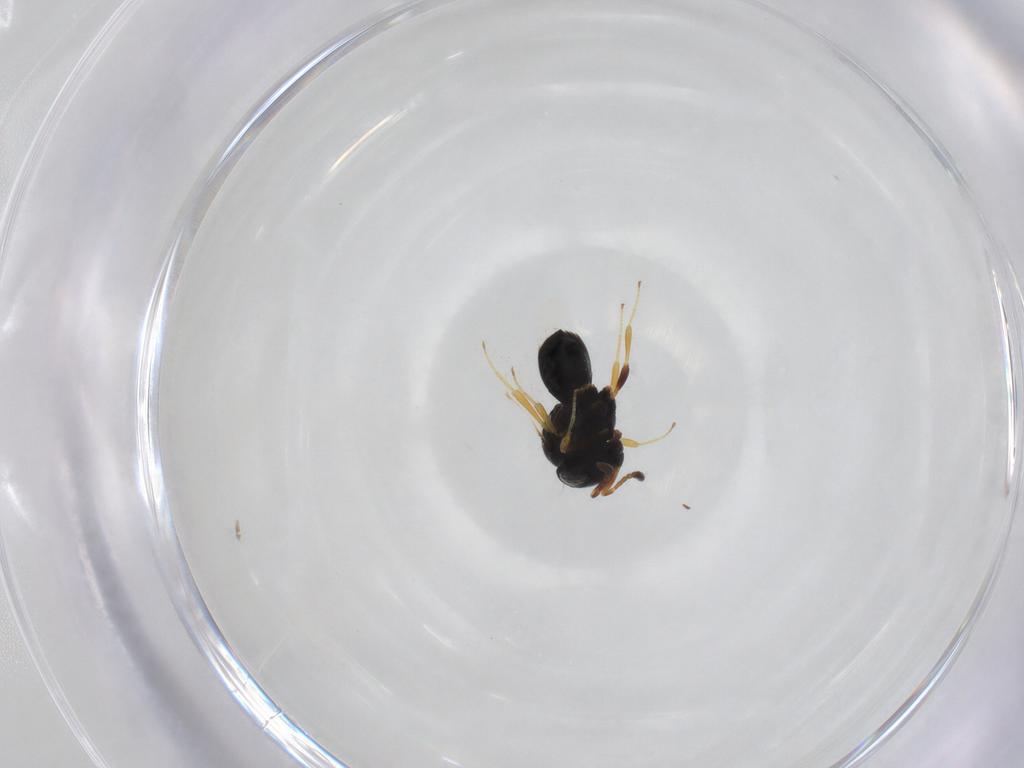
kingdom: Animalia
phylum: Arthropoda
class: Insecta
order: Hymenoptera
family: Scelionidae
